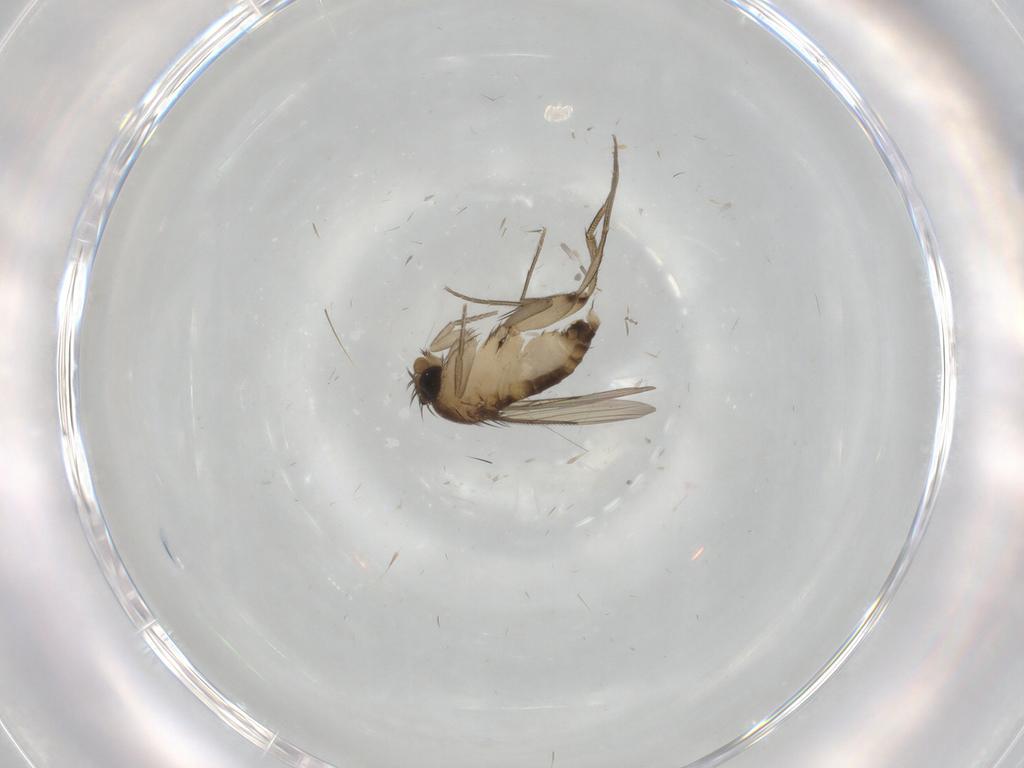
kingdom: Animalia
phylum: Arthropoda
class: Insecta
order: Diptera
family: Phoridae
